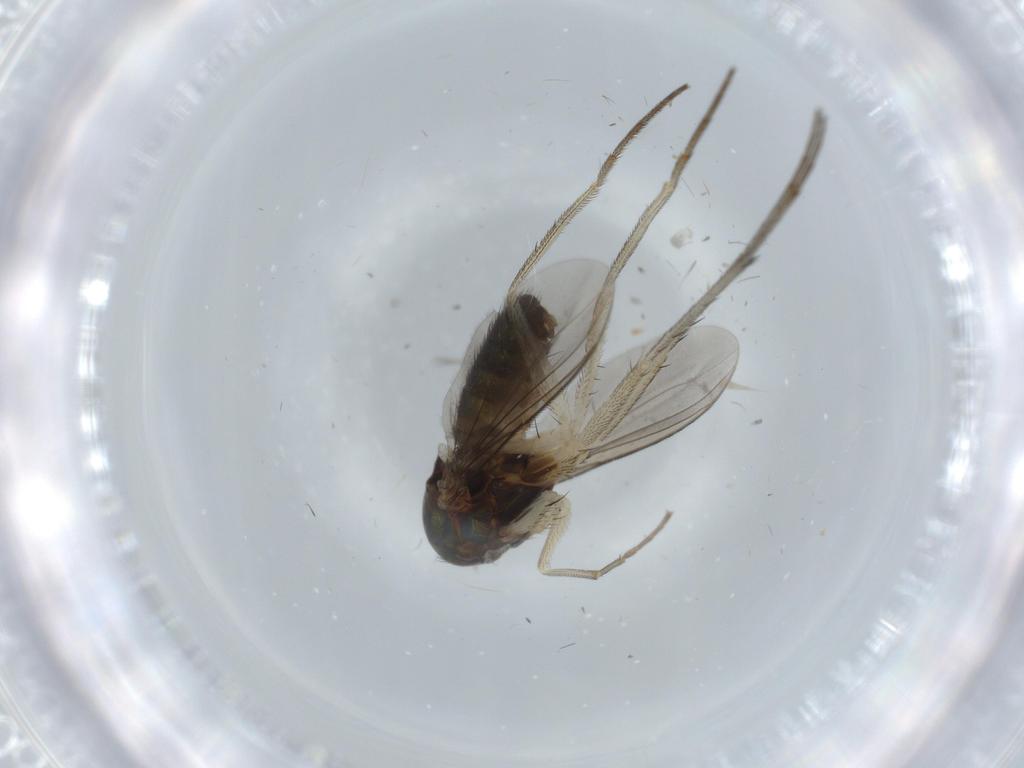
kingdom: Animalia
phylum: Arthropoda
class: Insecta
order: Diptera
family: Dolichopodidae
